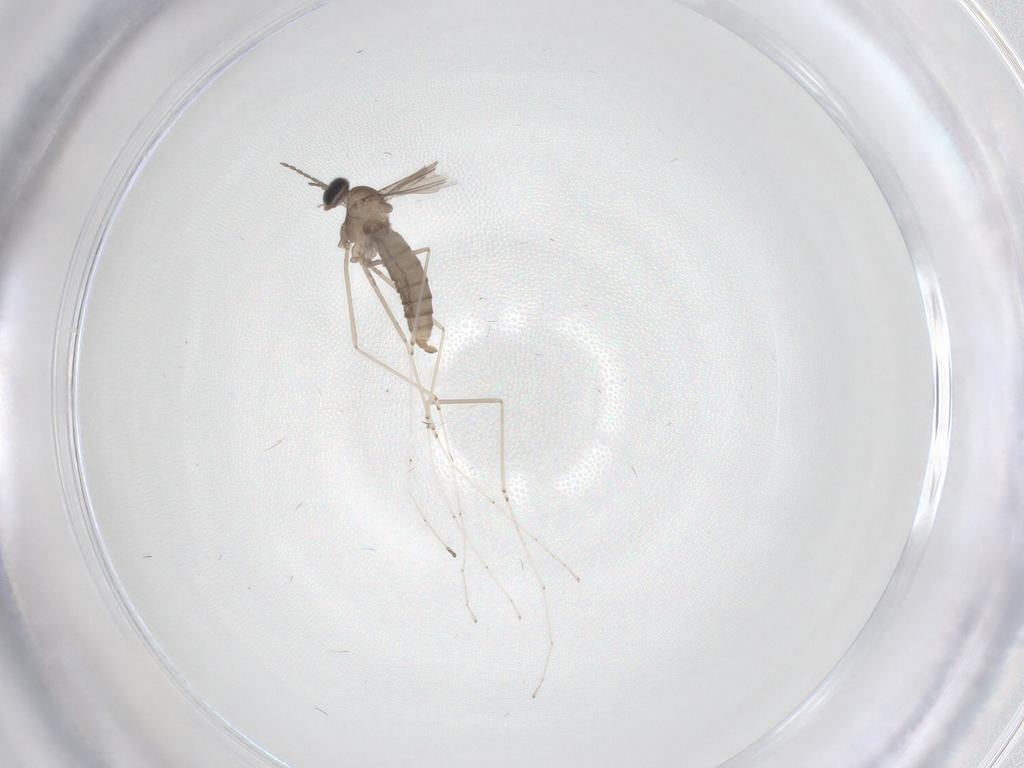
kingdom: Animalia
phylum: Arthropoda
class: Insecta
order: Diptera
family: Cecidomyiidae
